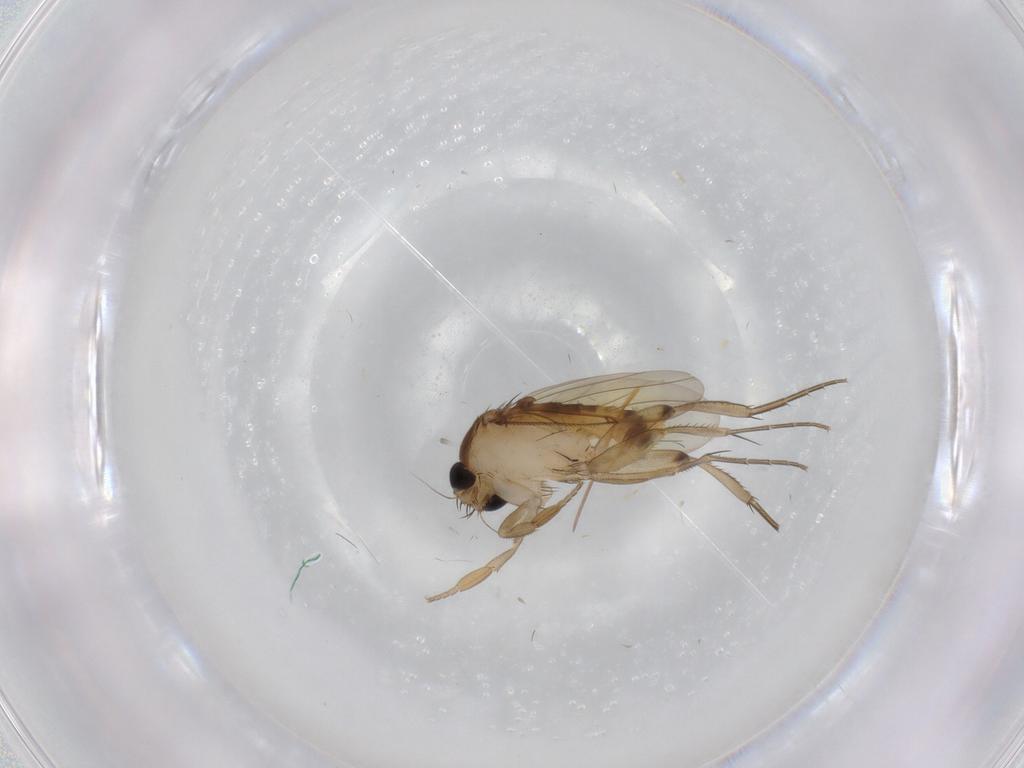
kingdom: Animalia
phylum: Arthropoda
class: Insecta
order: Diptera
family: Phoridae
